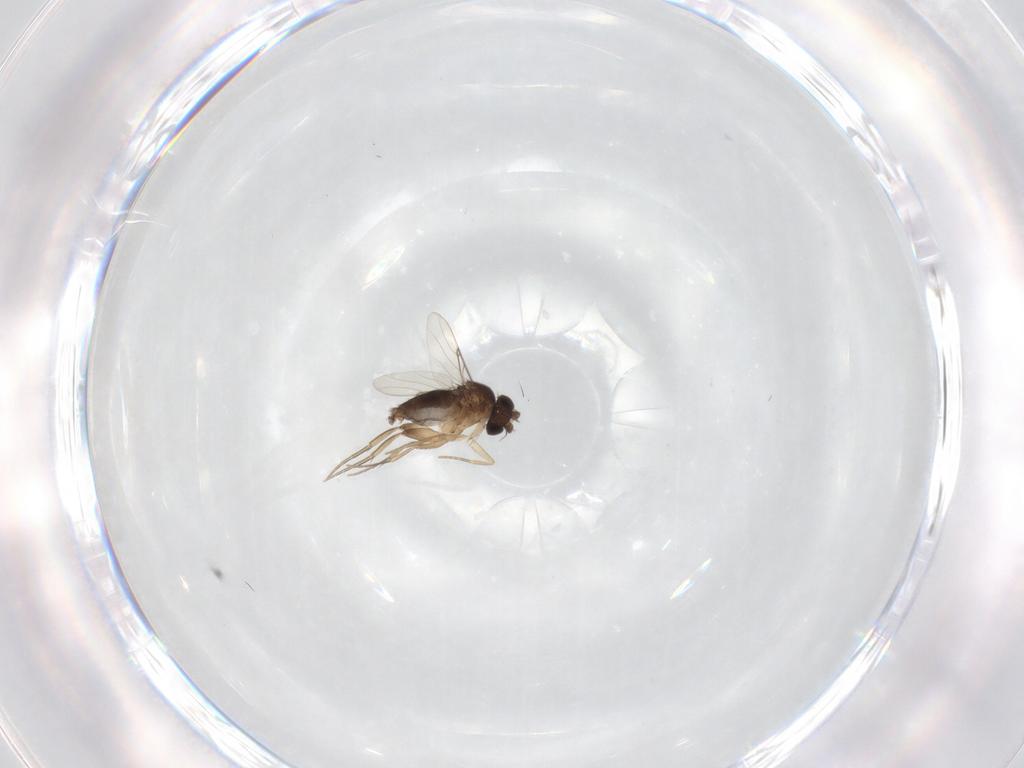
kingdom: Animalia
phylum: Arthropoda
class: Insecta
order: Diptera
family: Phoridae
